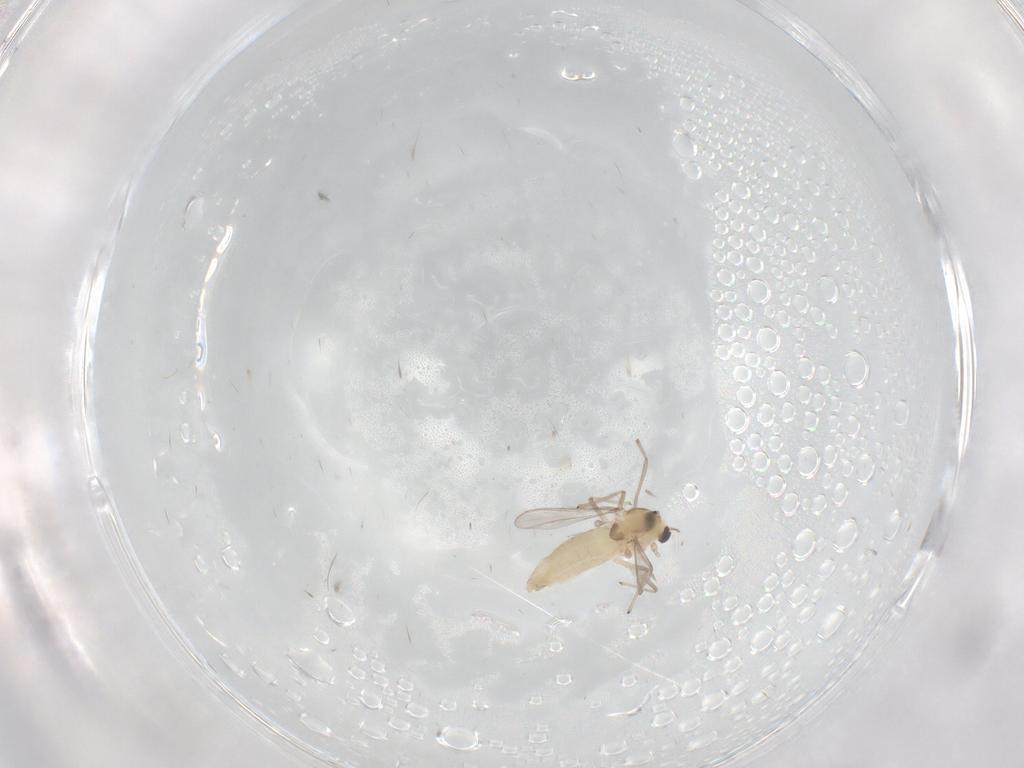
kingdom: Animalia
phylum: Arthropoda
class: Insecta
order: Diptera
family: Chironomidae
